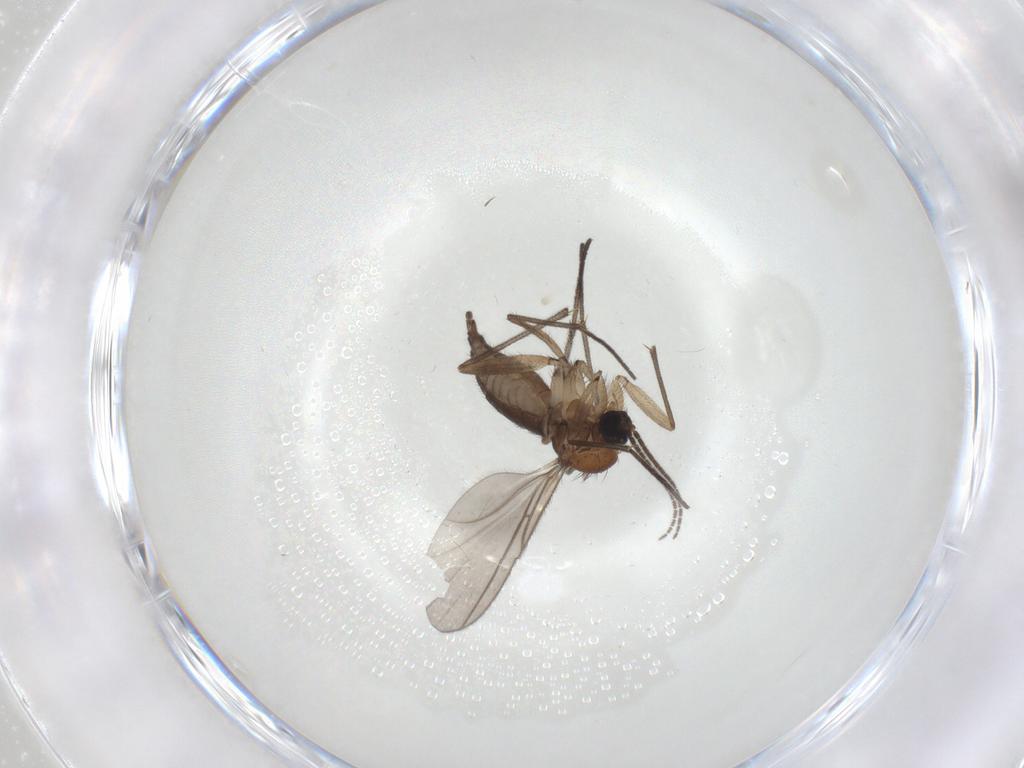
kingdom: Animalia
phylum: Arthropoda
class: Insecta
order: Diptera
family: Sciaridae
